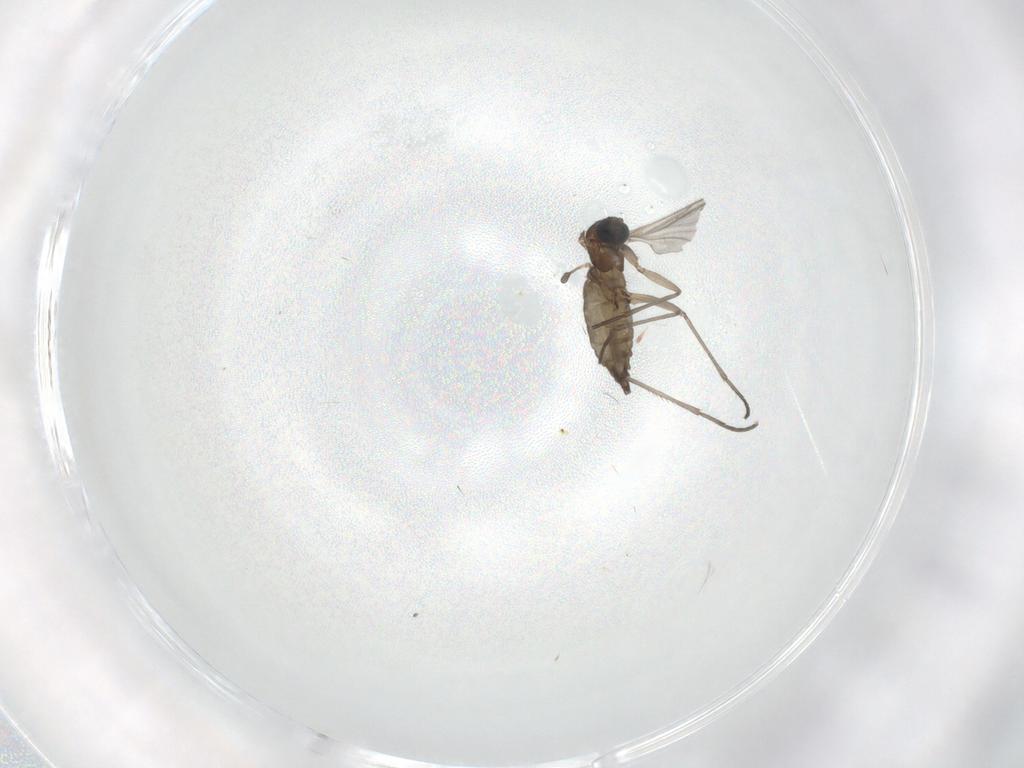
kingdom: Animalia
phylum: Arthropoda
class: Insecta
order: Diptera
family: Sciaridae
